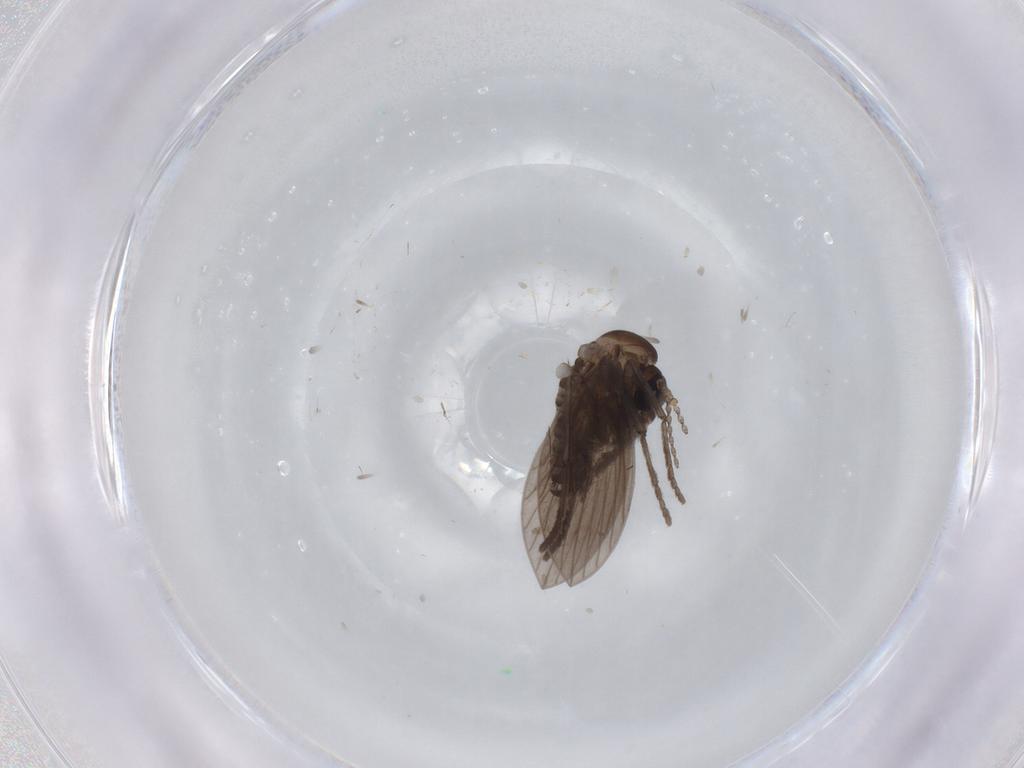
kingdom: Animalia
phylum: Arthropoda
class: Insecta
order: Diptera
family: Psychodidae
